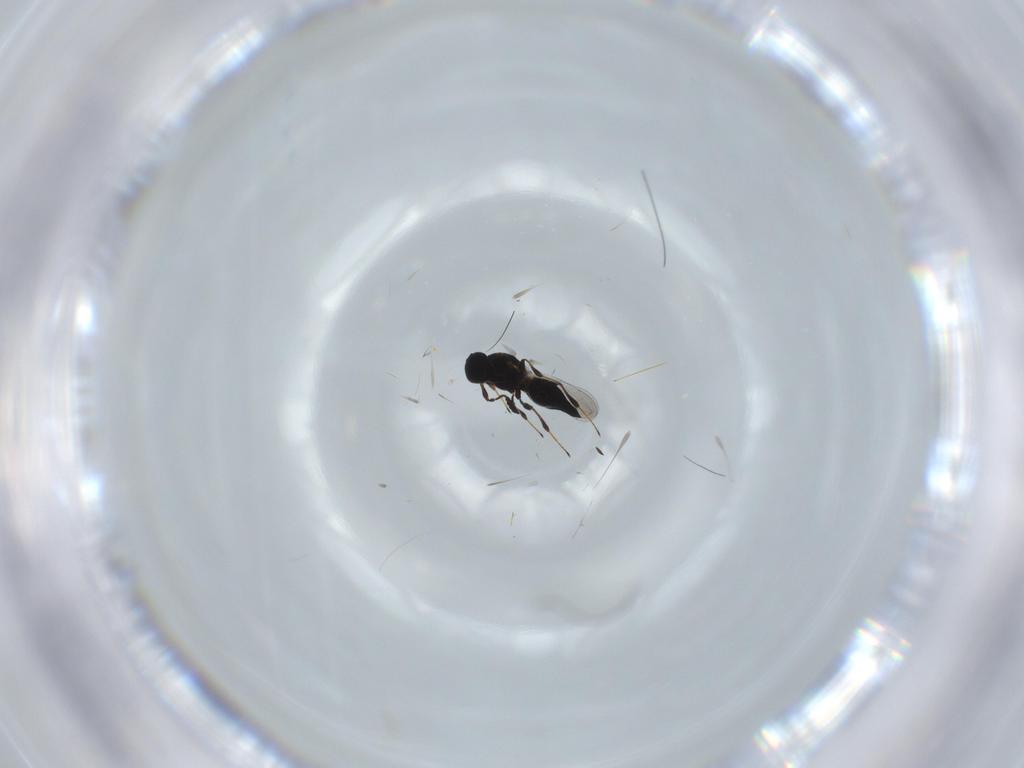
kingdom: Animalia
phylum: Arthropoda
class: Insecta
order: Hymenoptera
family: Platygastridae
